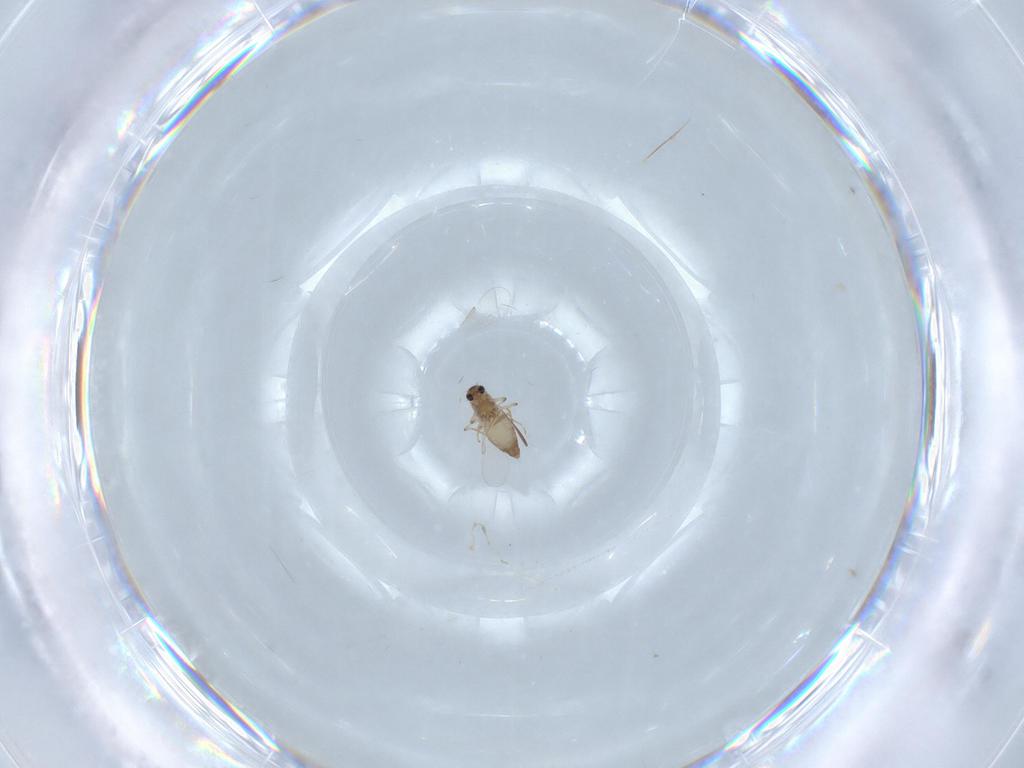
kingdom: Animalia
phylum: Arthropoda
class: Insecta
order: Diptera
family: Chironomidae
